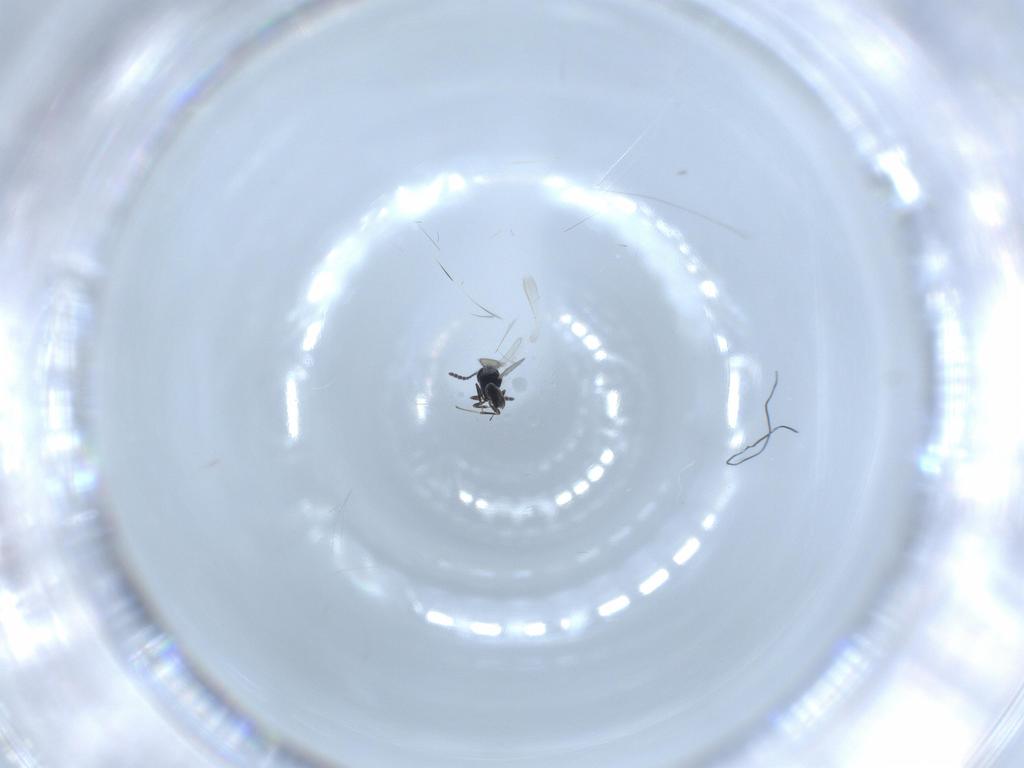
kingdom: Animalia
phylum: Arthropoda
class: Insecta
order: Hymenoptera
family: Scelionidae
